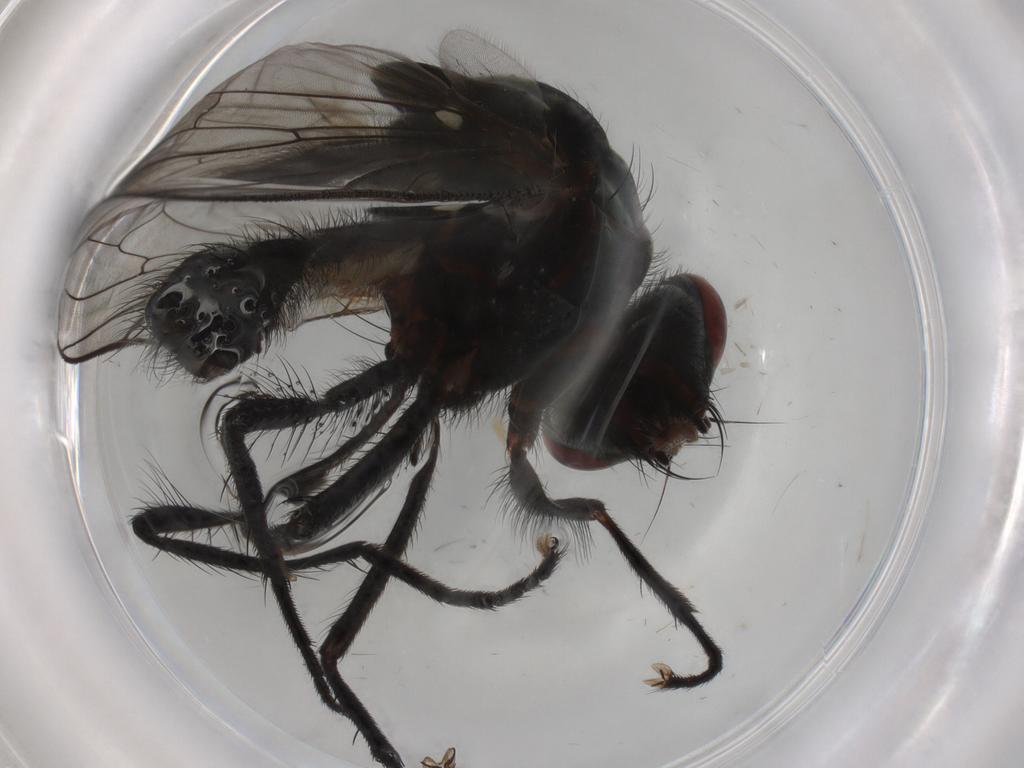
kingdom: Animalia
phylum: Arthropoda
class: Insecta
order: Diptera
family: Anthomyiidae
